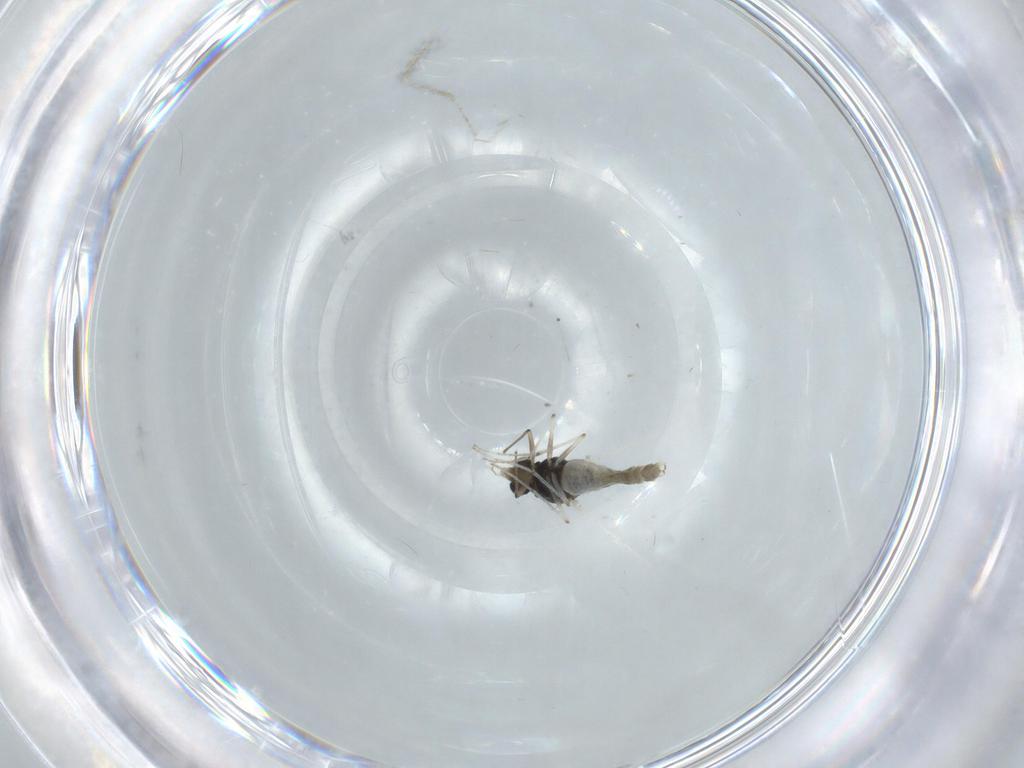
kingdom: Animalia
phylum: Arthropoda
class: Insecta
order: Diptera
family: Chironomidae
